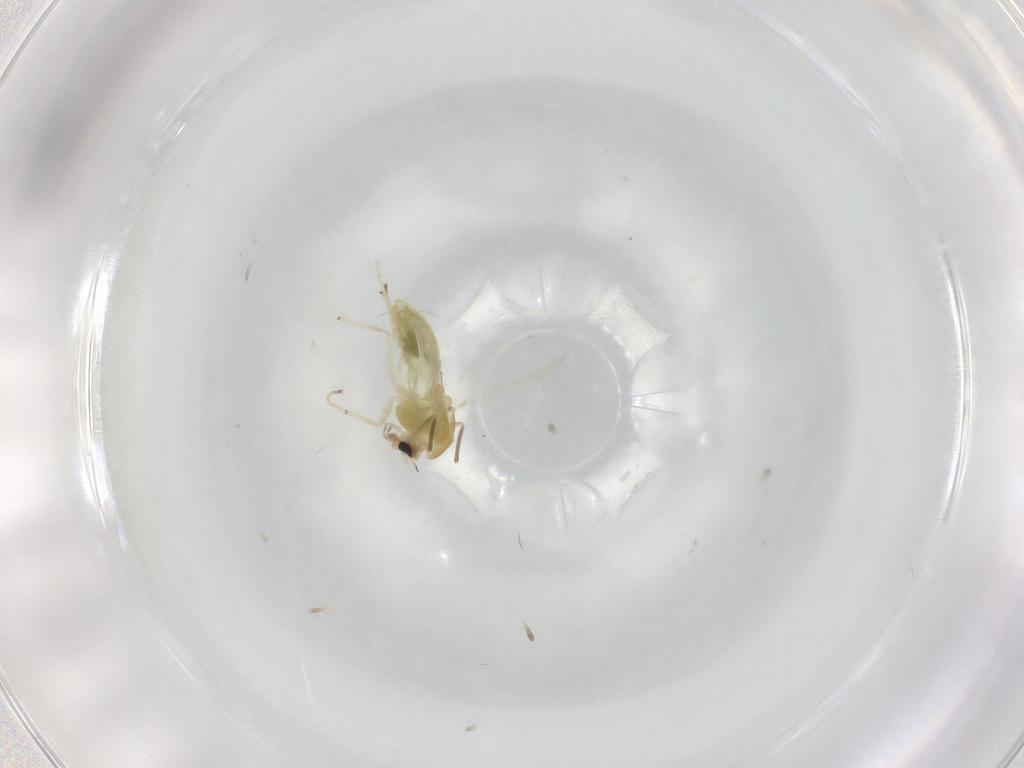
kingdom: Animalia
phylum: Arthropoda
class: Insecta
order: Diptera
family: Chironomidae
